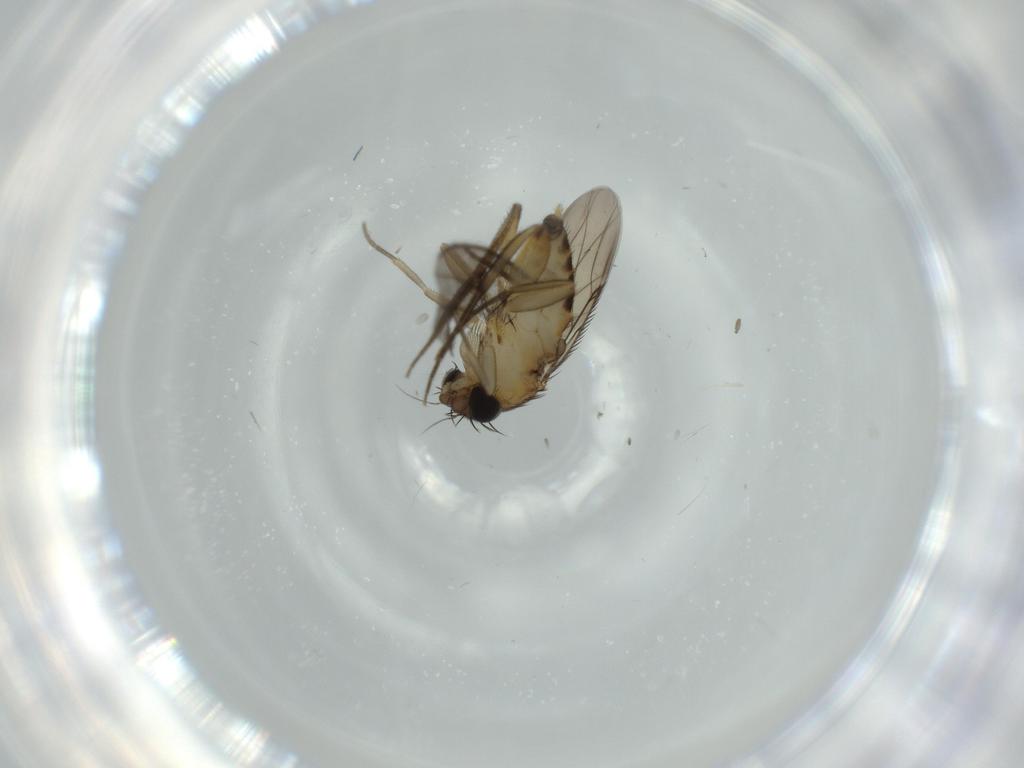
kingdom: Animalia
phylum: Arthropoda
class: Insecta
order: Diptera
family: Phoridae
